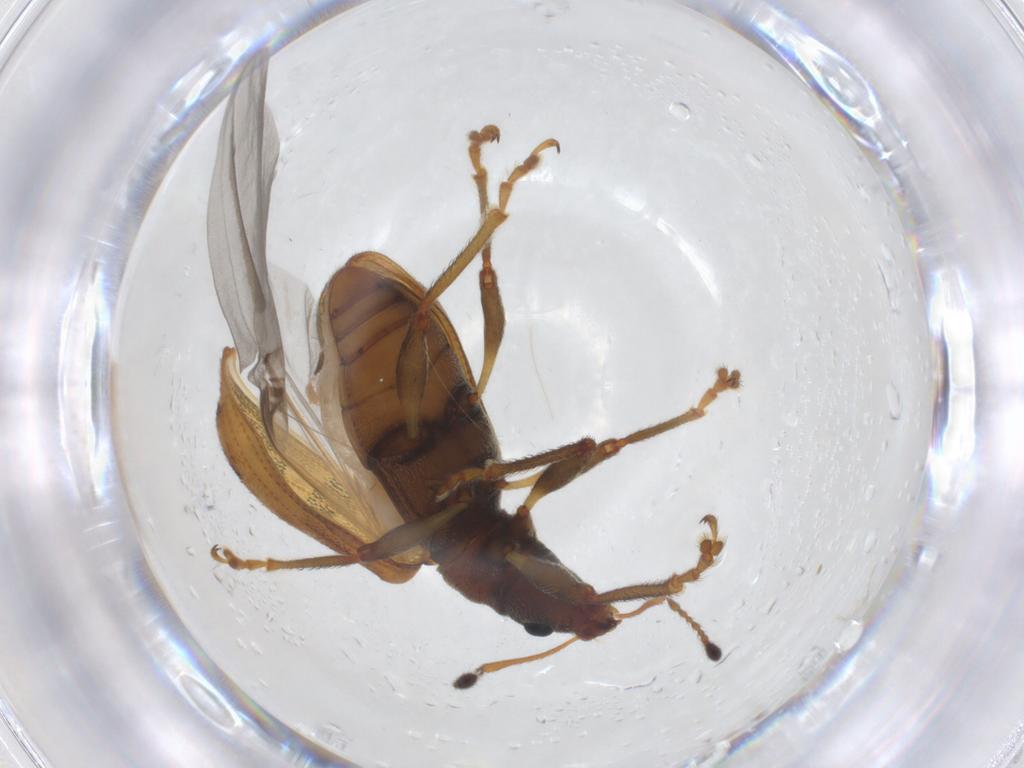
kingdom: Animalia
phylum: Arthropoda
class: Insecta
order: Coleoptera
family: Curculionidae
